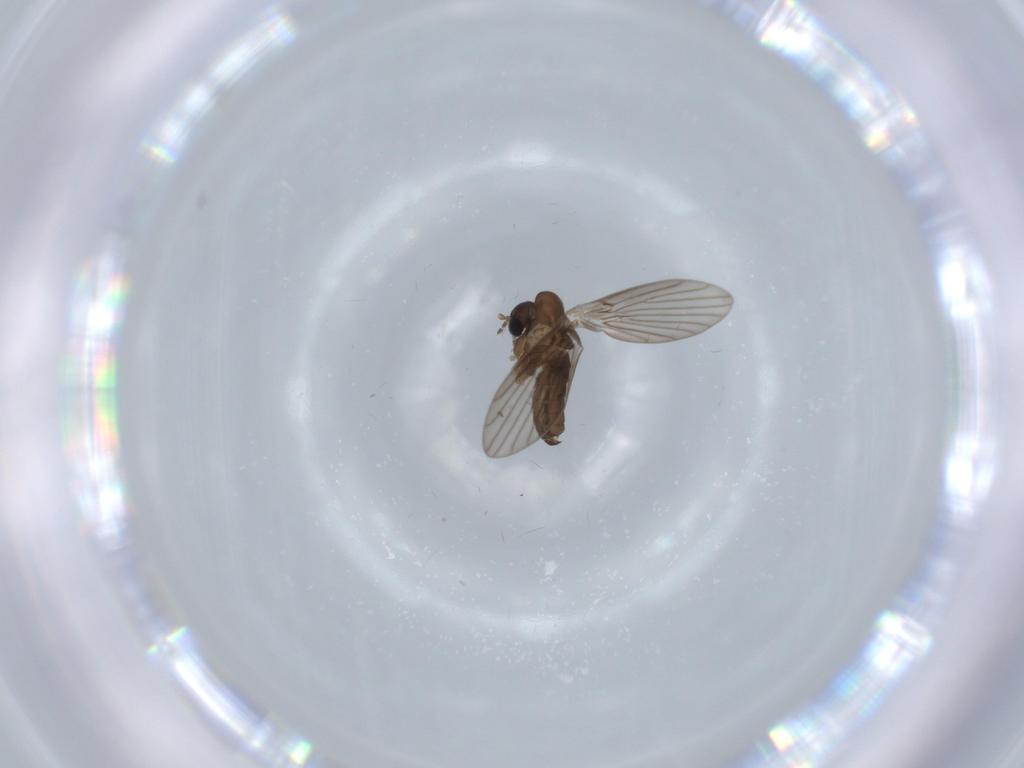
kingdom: Animalia
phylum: Arthropoda
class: Insecta
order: Diptera
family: Psychodidae
